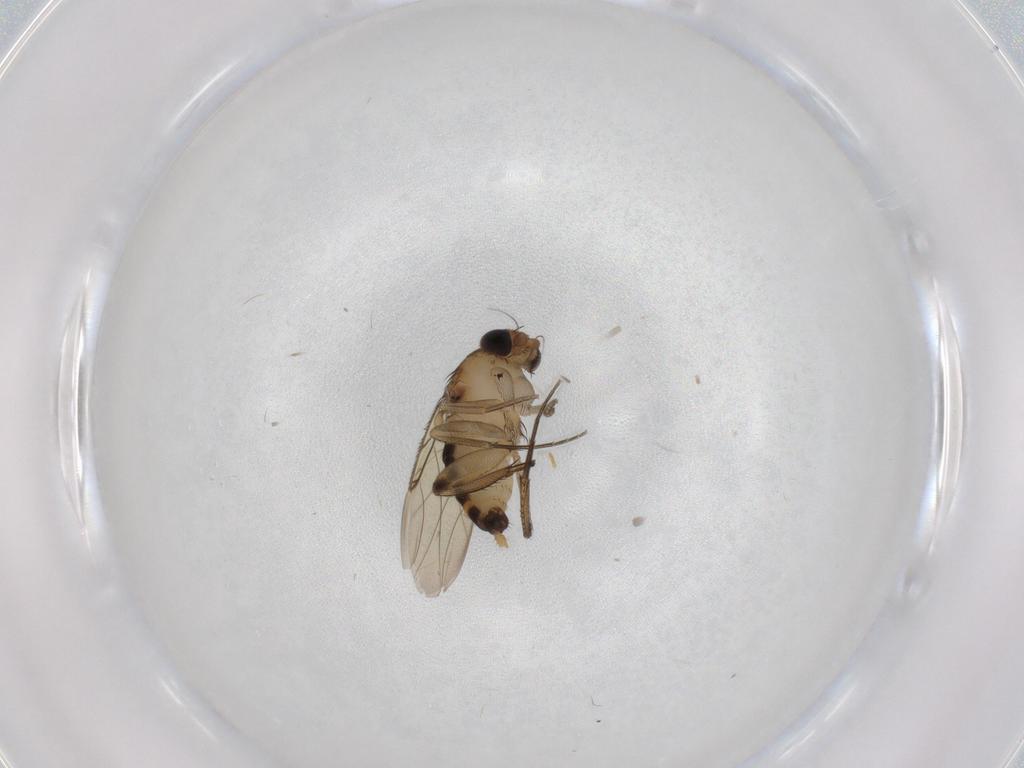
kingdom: Animalia
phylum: Arthropoda
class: Insecta
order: Diptera
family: Phoridae
